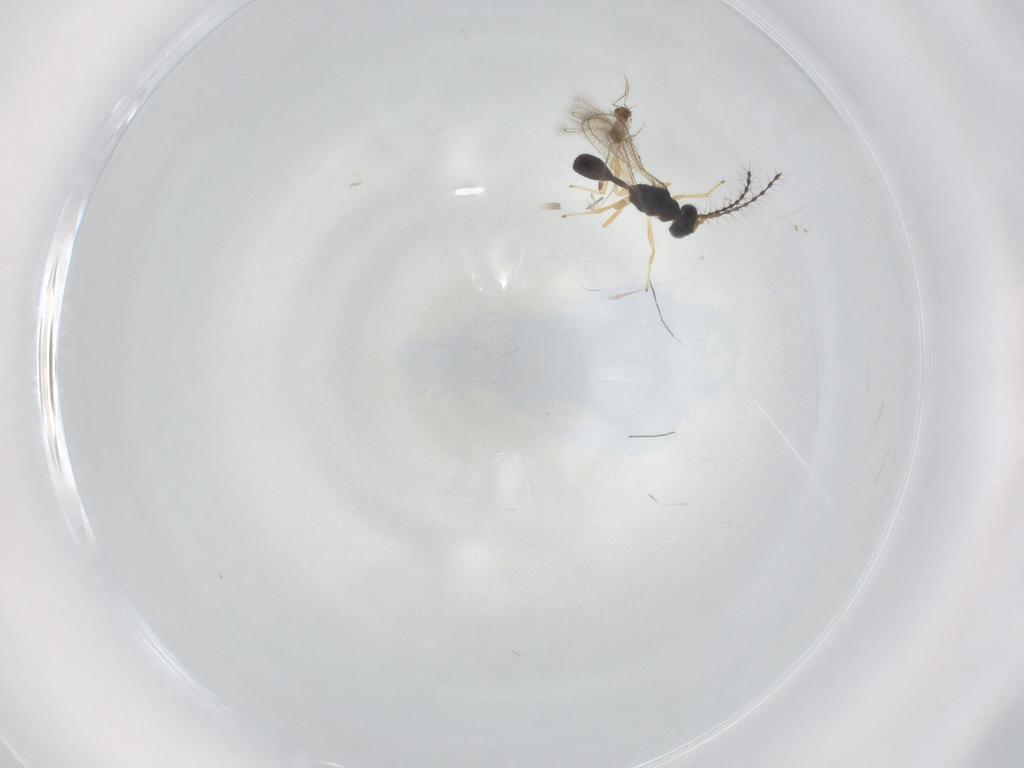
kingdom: Animalia
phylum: Arthropoda
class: Insecta
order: Hymenoptera
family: Diparidae
